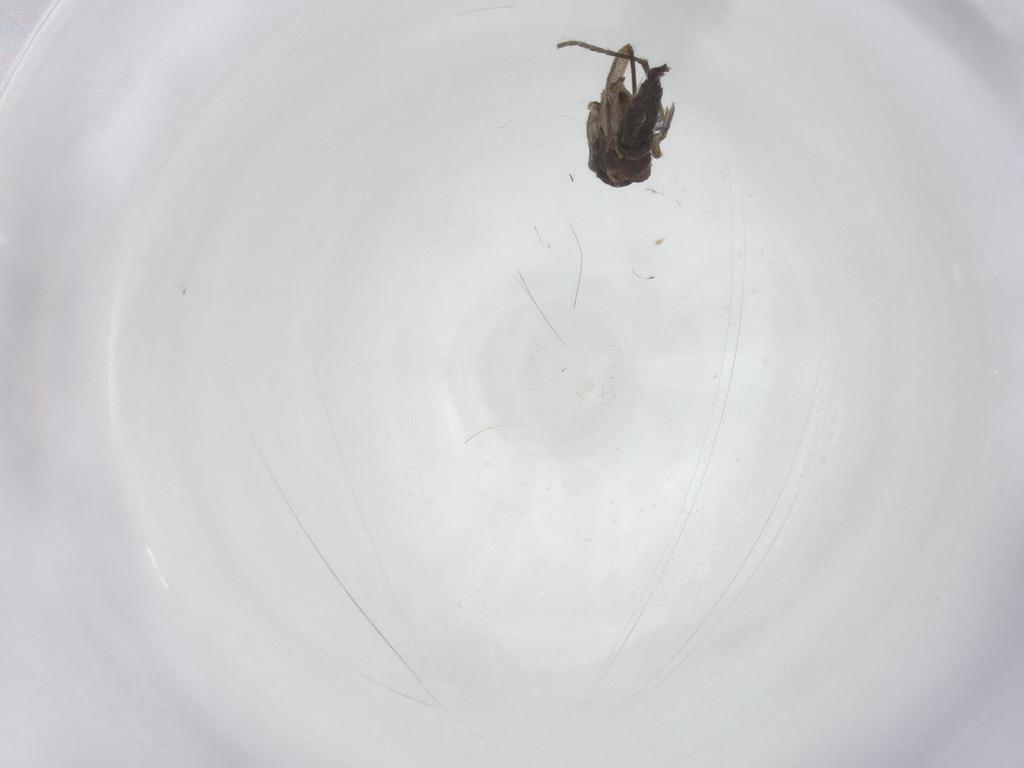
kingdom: Animalia
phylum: Arthropoda
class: Insecta
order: Diptera
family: Sciaridae
